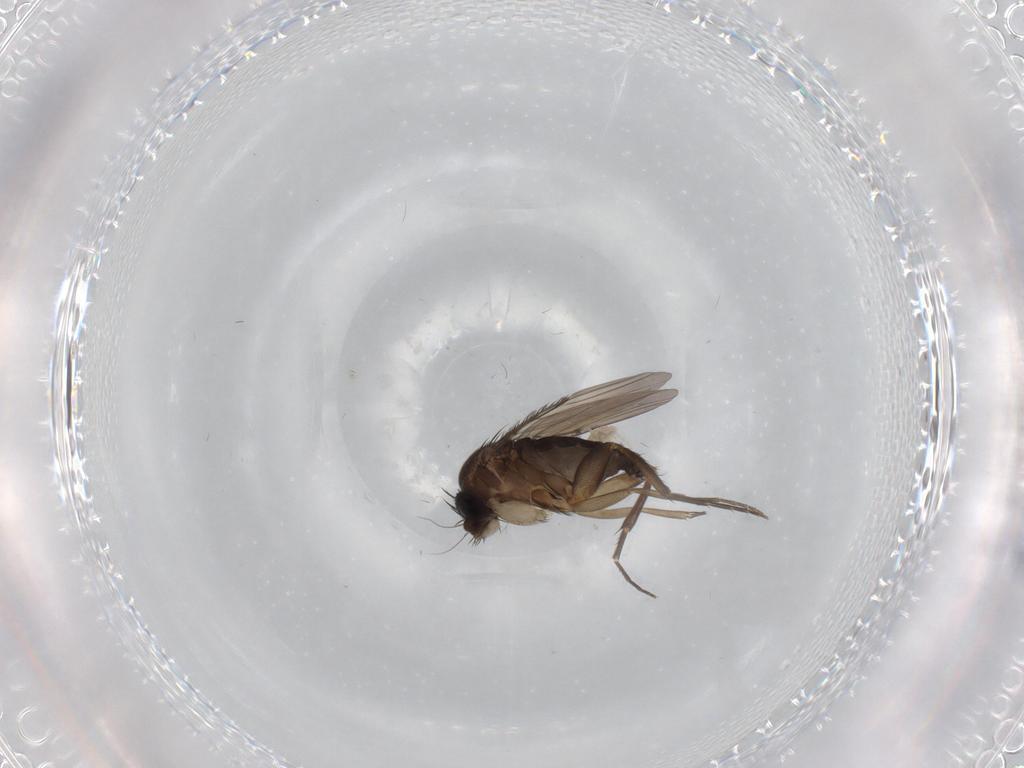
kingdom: Animalia
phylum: Arthropoda
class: Insecta
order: Diptera
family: Phoridae
